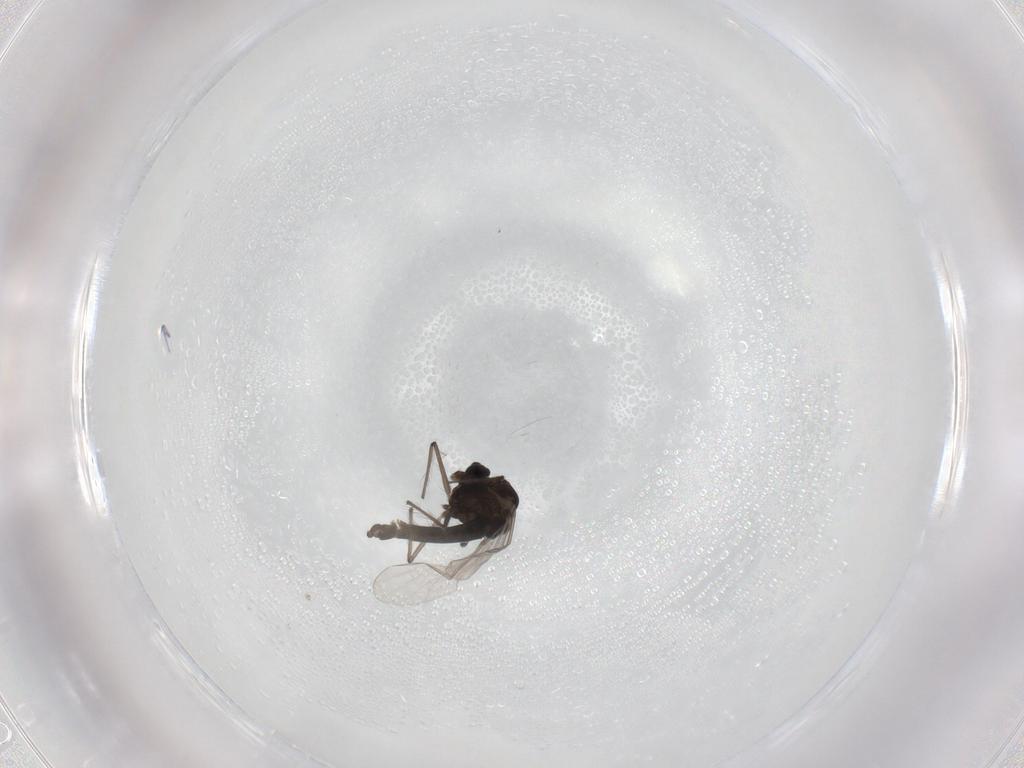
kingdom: Animalia
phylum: Arthropoda
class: Insecta
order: Diptera
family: Chironomidae
